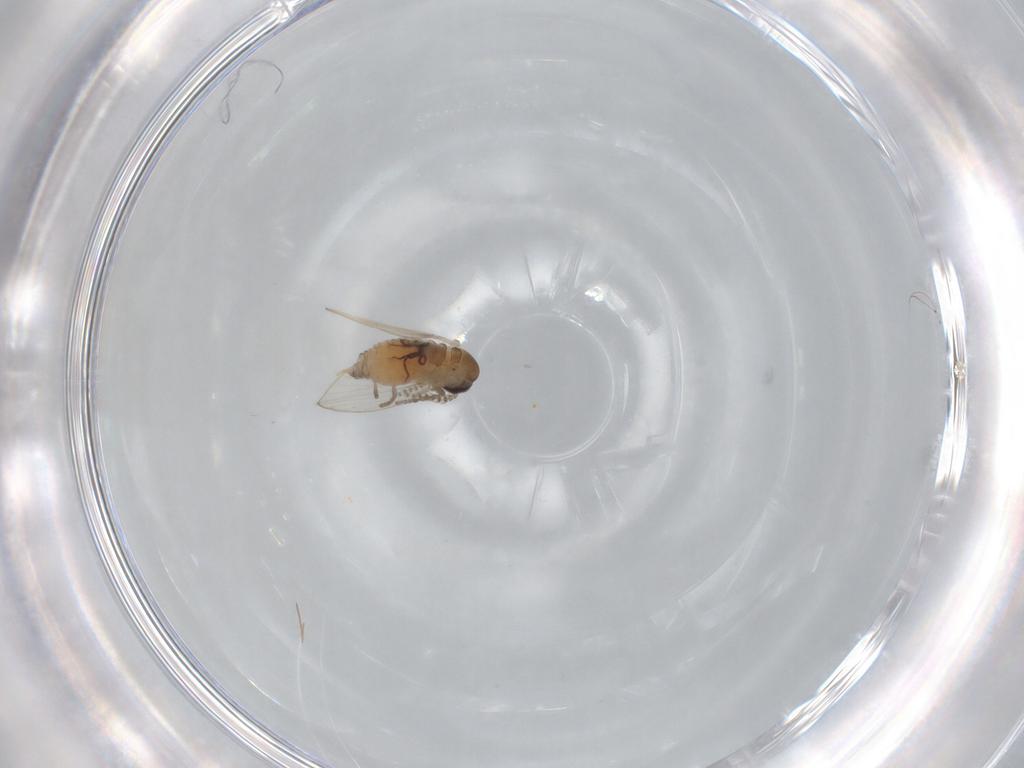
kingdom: Animalia
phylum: Arthropoda
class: Insecta
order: Diptera
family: Psychodidae
